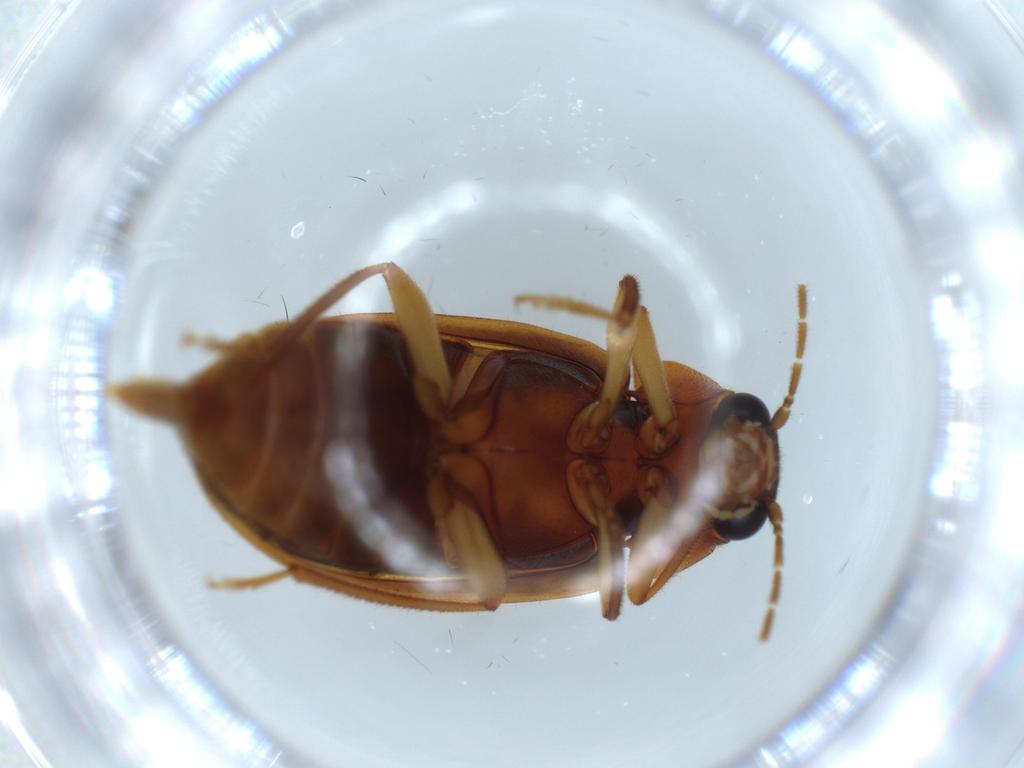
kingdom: Animalia
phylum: Arthropoda
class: Insecta
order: Coleoptera
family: Ptilodactylidae
